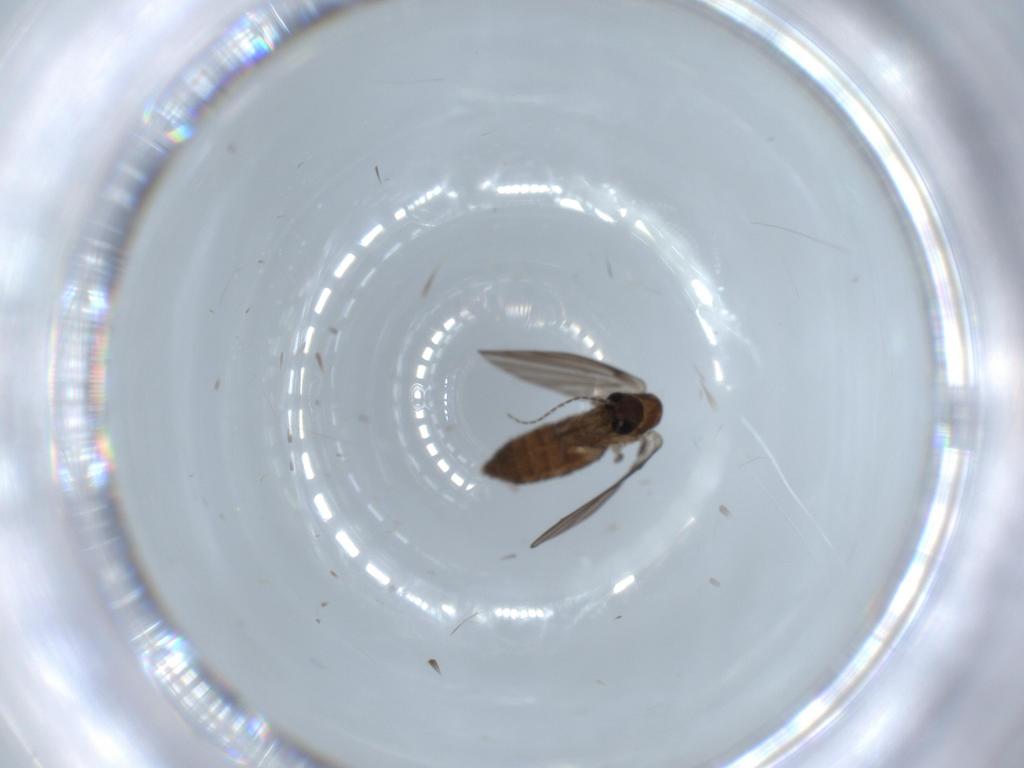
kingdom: Animalia
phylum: Arthropoda
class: Insecta
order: Diptera
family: Psychodidae
